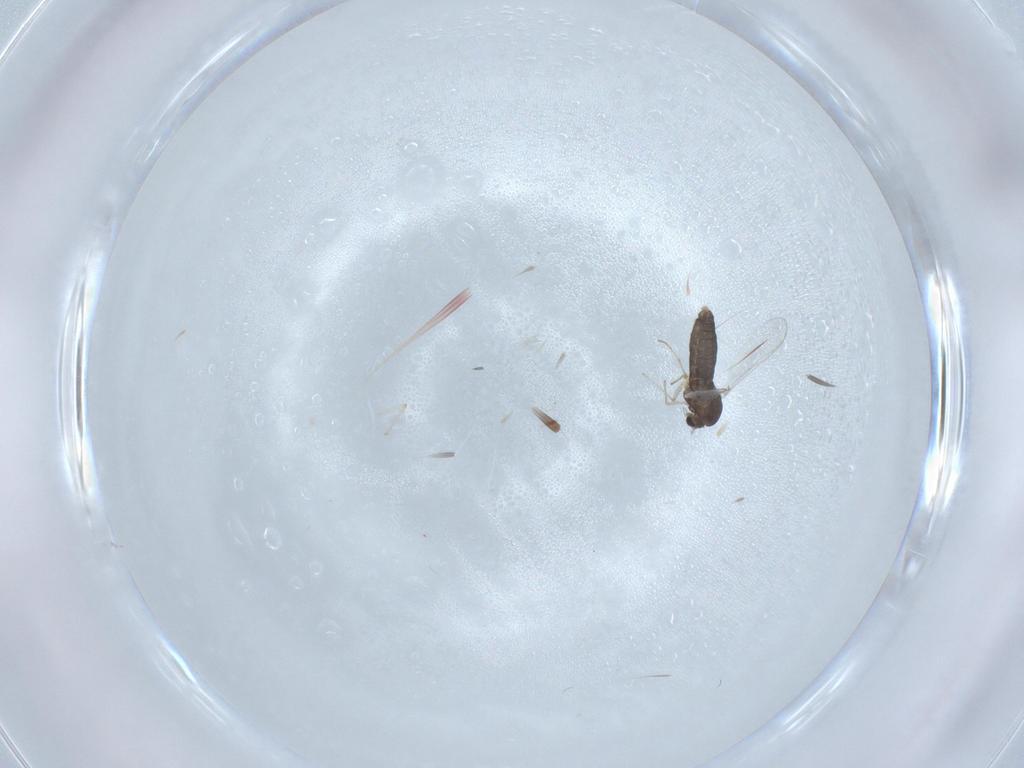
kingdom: Animalia
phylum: Arthropoda
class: Insecta
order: Diptera
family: Chironomidae
